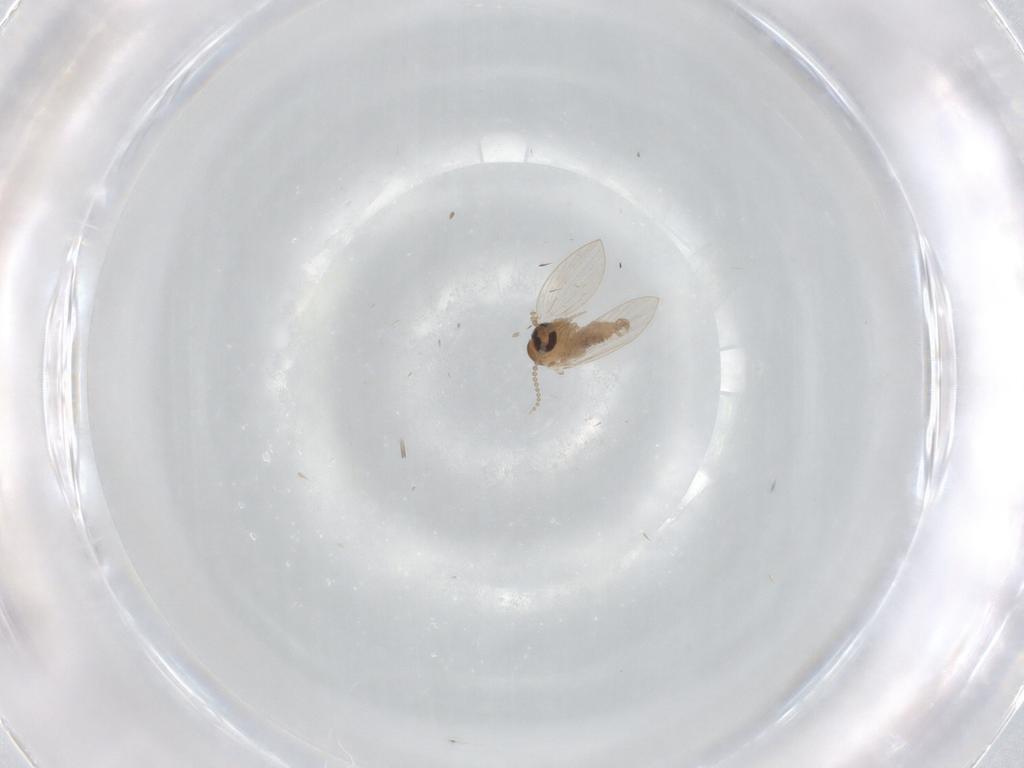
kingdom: Animalia
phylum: Arthropoda
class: Insecta
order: Diptera
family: Psychodidae
